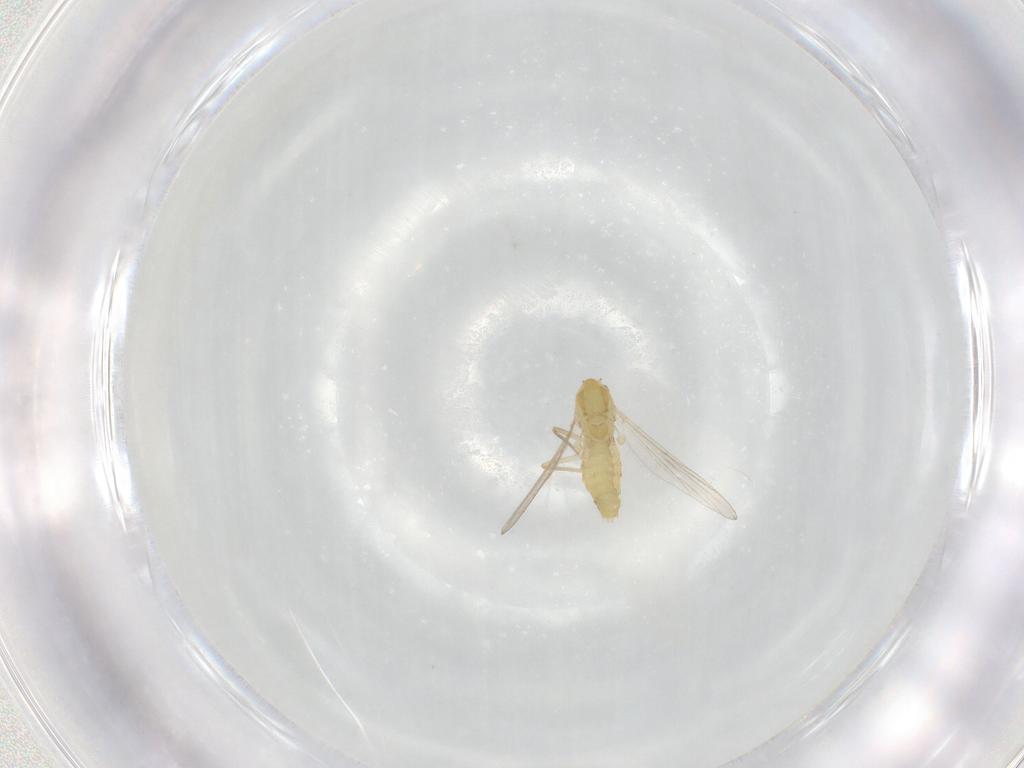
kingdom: Animalia
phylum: Arthropoda
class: Insecta
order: Diptera
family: Chironomidae
